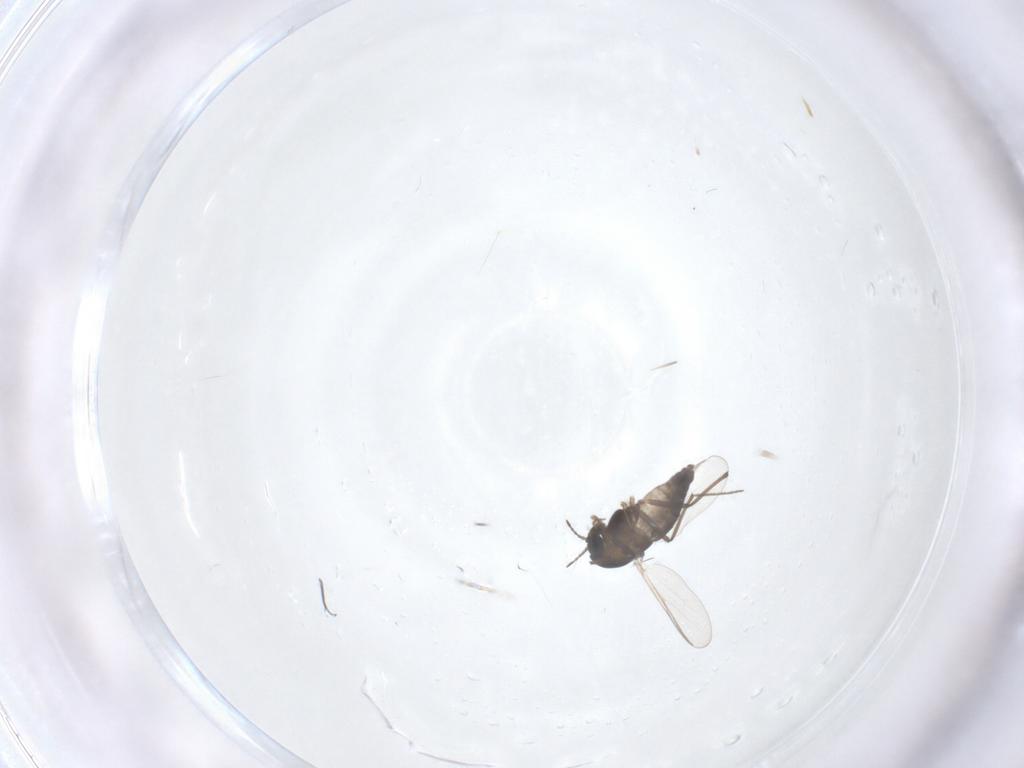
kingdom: Animalia
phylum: Arthropoda
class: Insecta
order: Diptera
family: Chironomidae
